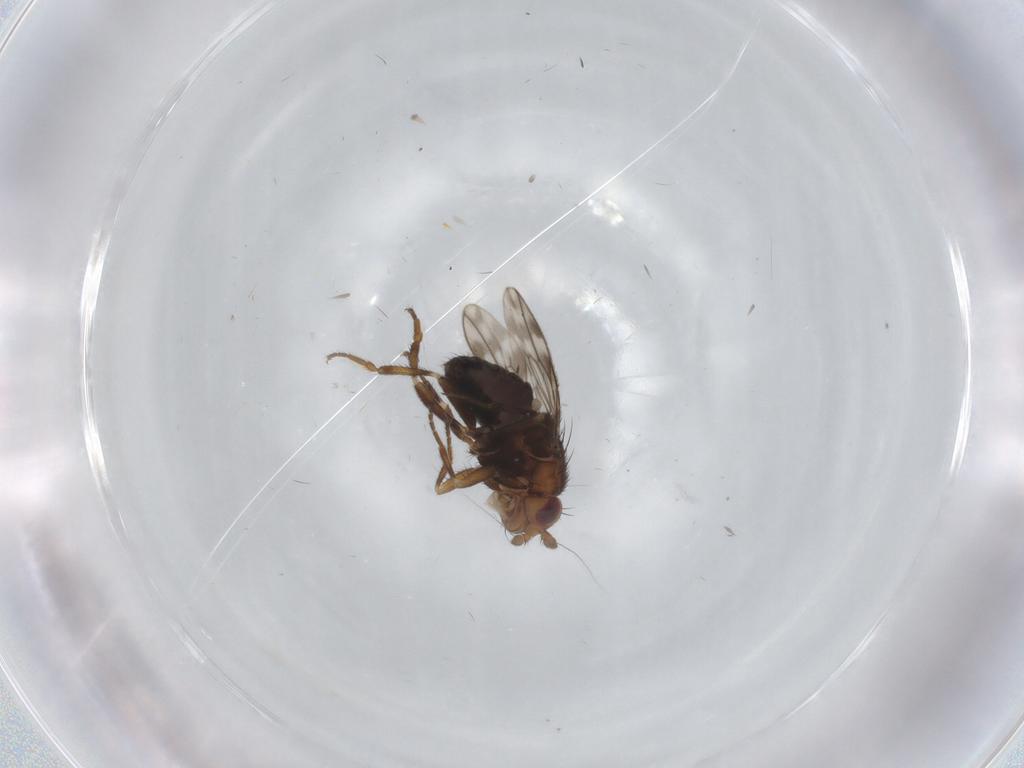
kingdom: Animalia
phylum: Arthropoda
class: Insecta
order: Diptera
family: Sphaeroceridae
